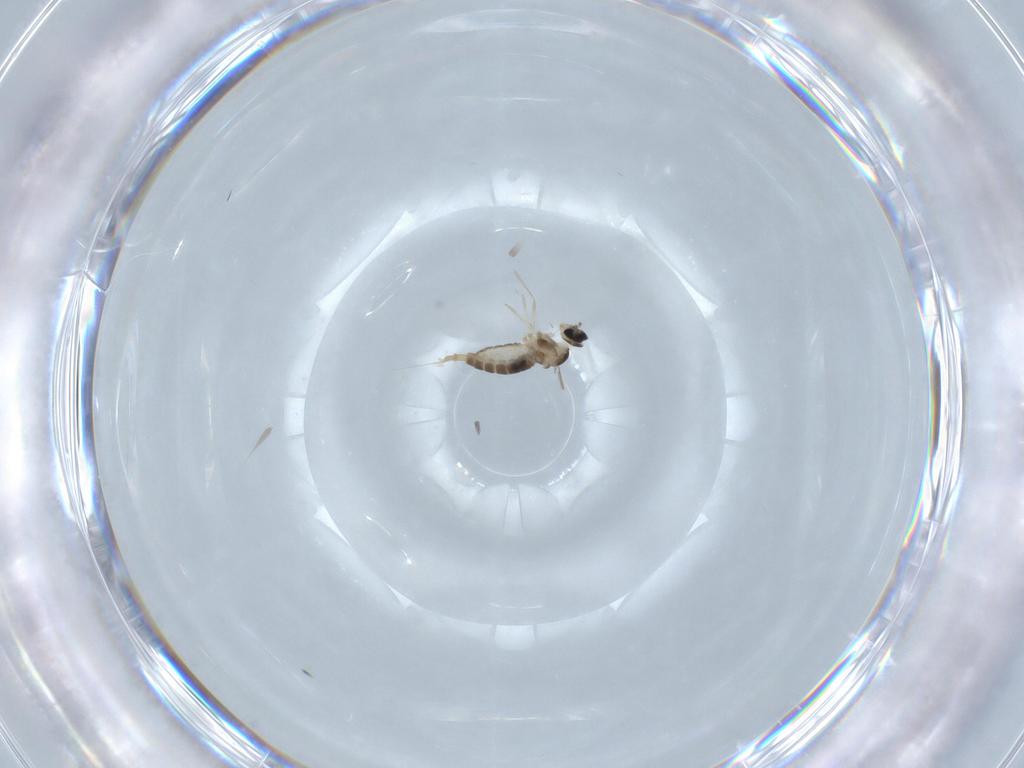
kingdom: Animalia
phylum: Arthropoda
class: Insecta
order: Diptera
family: Cecidomyiidae
